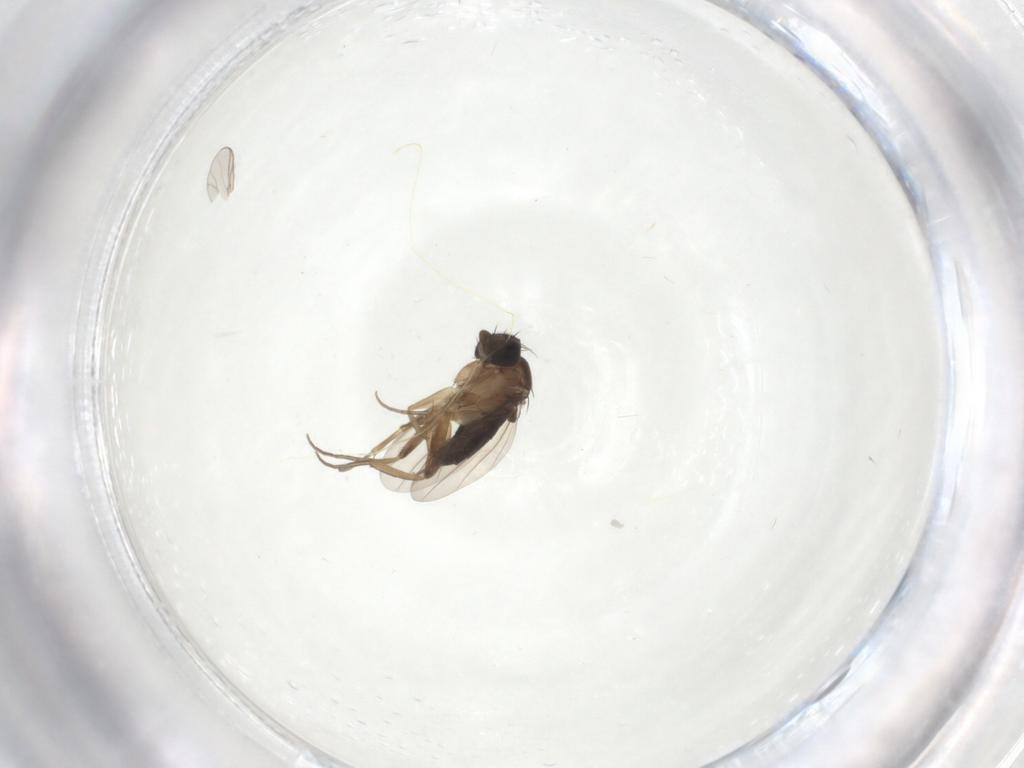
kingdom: Animalia
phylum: Arthropoda
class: Insecta
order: Diptera
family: Chironomidae
